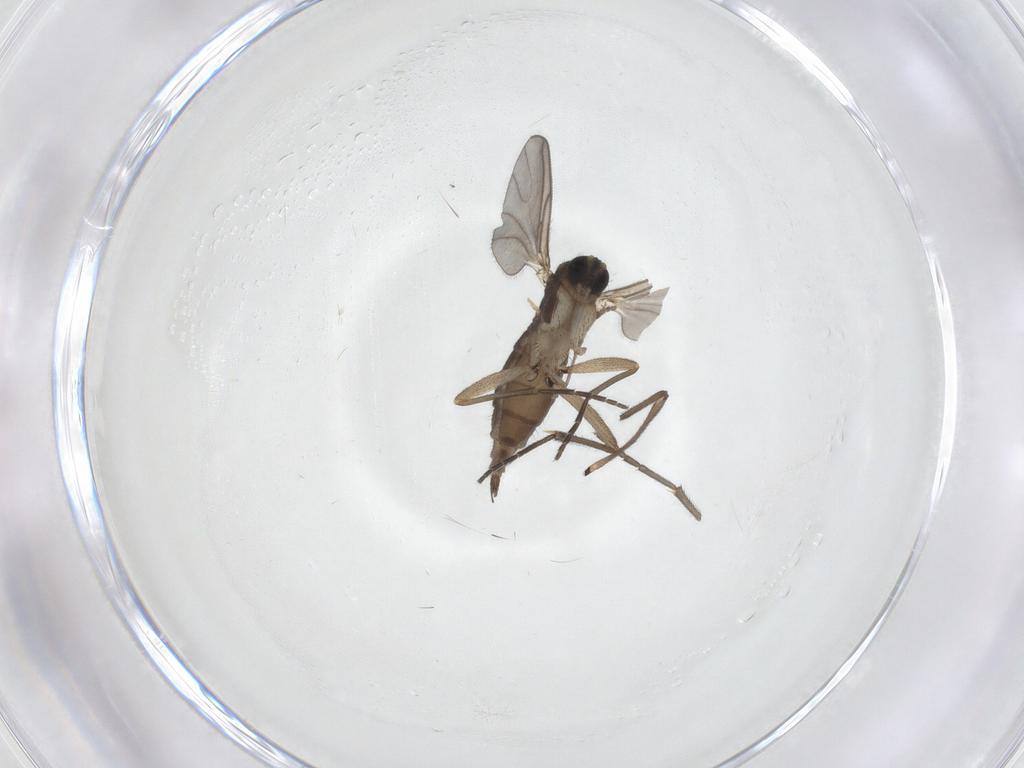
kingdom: Animalia
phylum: Arthropoda
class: Insecta
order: Diptera
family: Sciaridae
